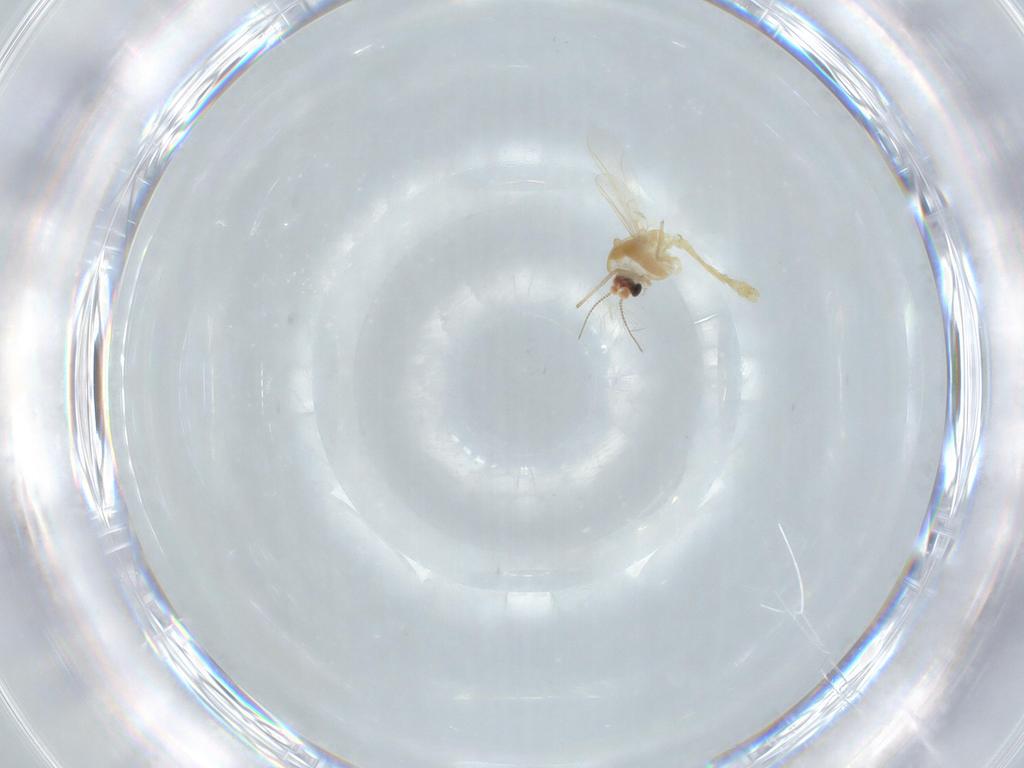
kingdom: Animalia
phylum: Arthropoda
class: Insecta
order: Diptera
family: Chironomidae
